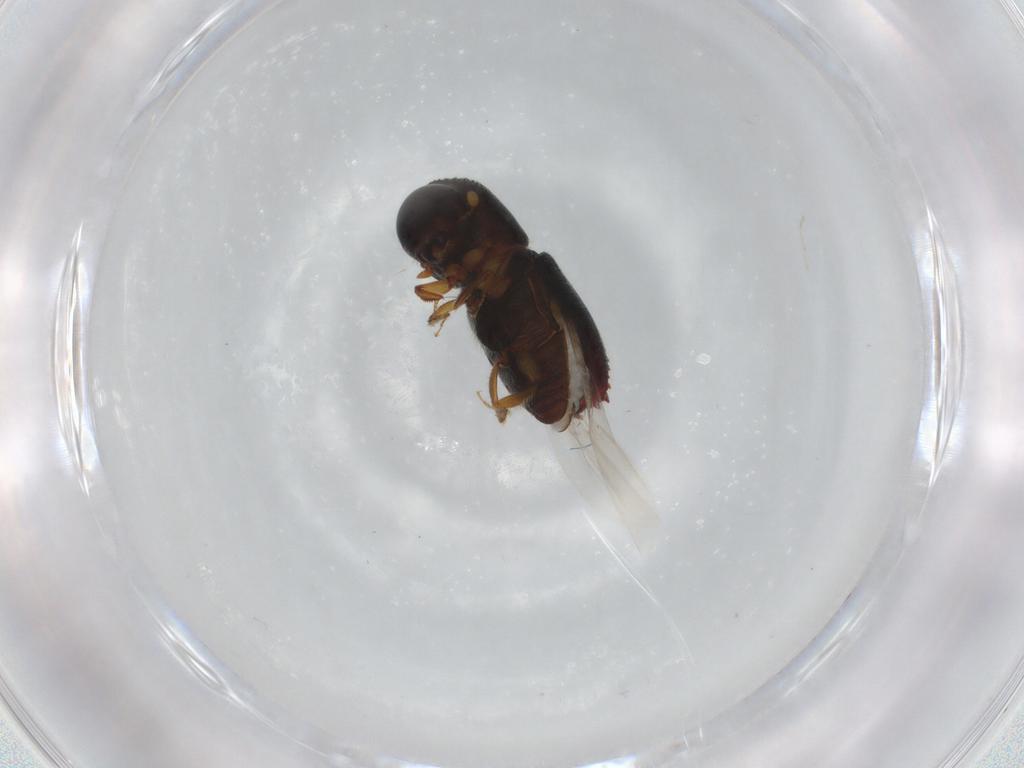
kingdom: Animalia
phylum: Arthropoda
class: Insecta
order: Coleoptera
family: Curculionidae
